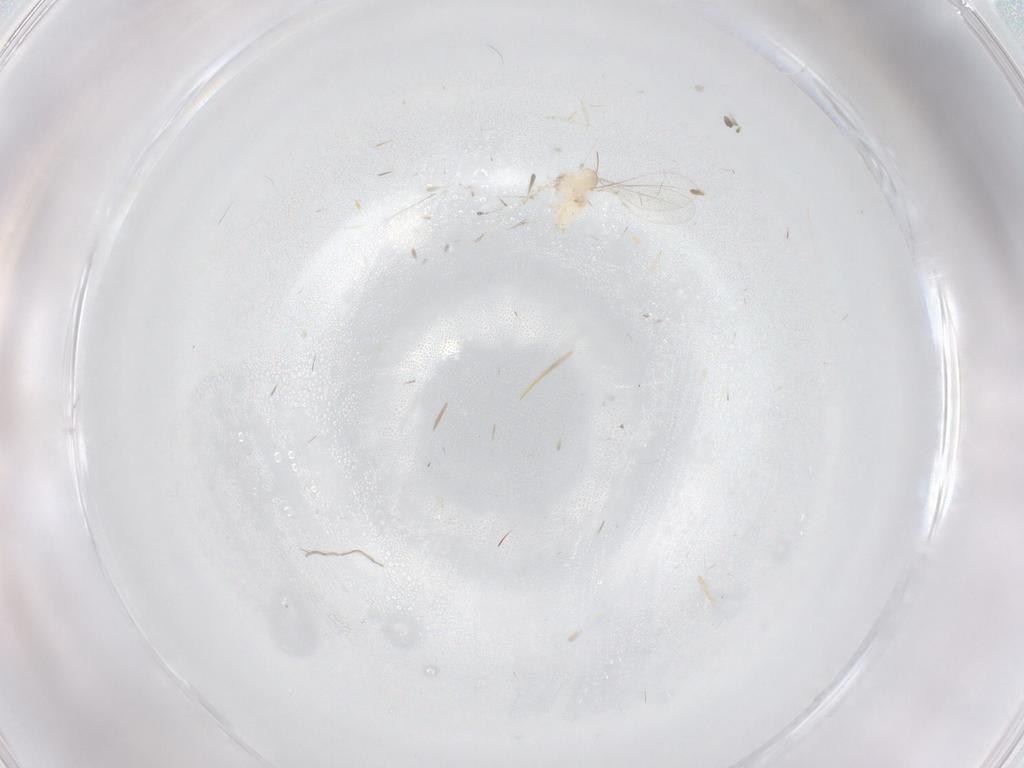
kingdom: Animalia
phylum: Arthropoda
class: Insecta
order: Diptera
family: Cecidomyiidae
